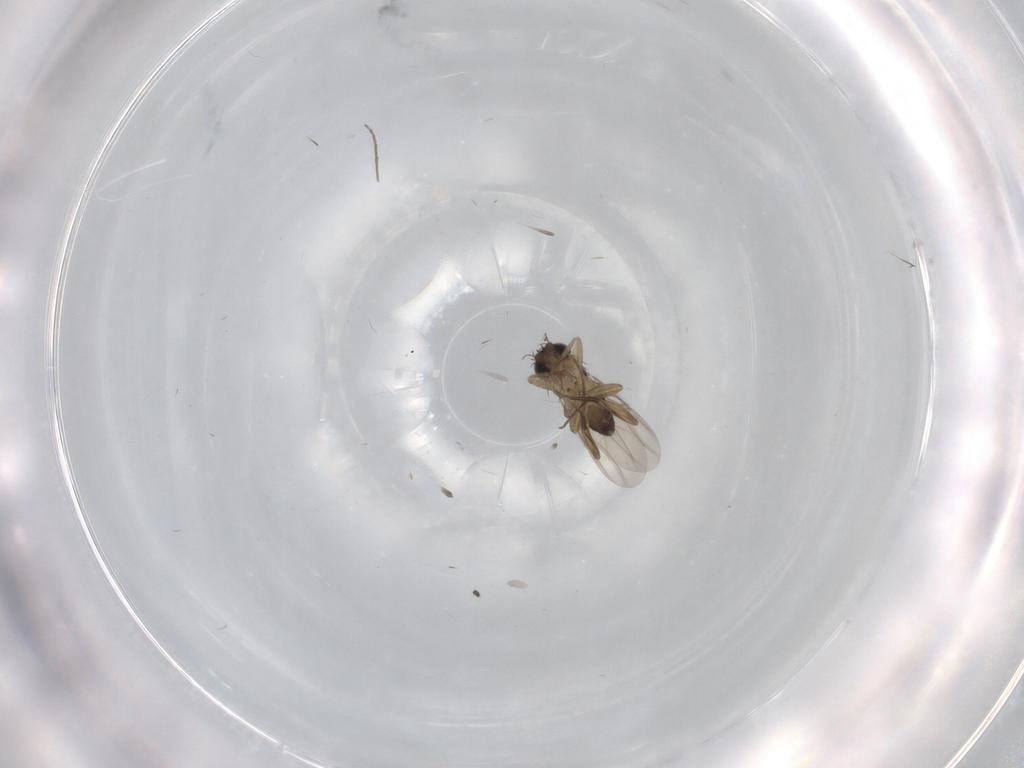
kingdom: Animalia
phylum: Arthropoda
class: Insecta
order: Diptera
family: Phoridae
